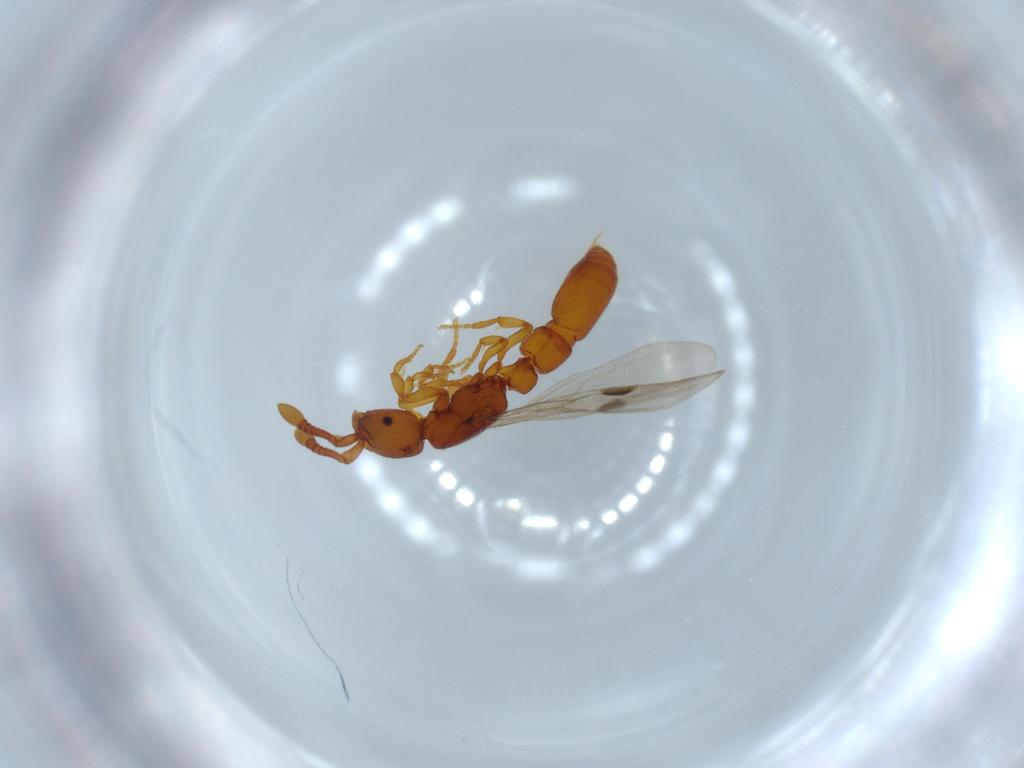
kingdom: Animalia
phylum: Arthropoda
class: Insecta
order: Hymenoptera
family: Formicidae
